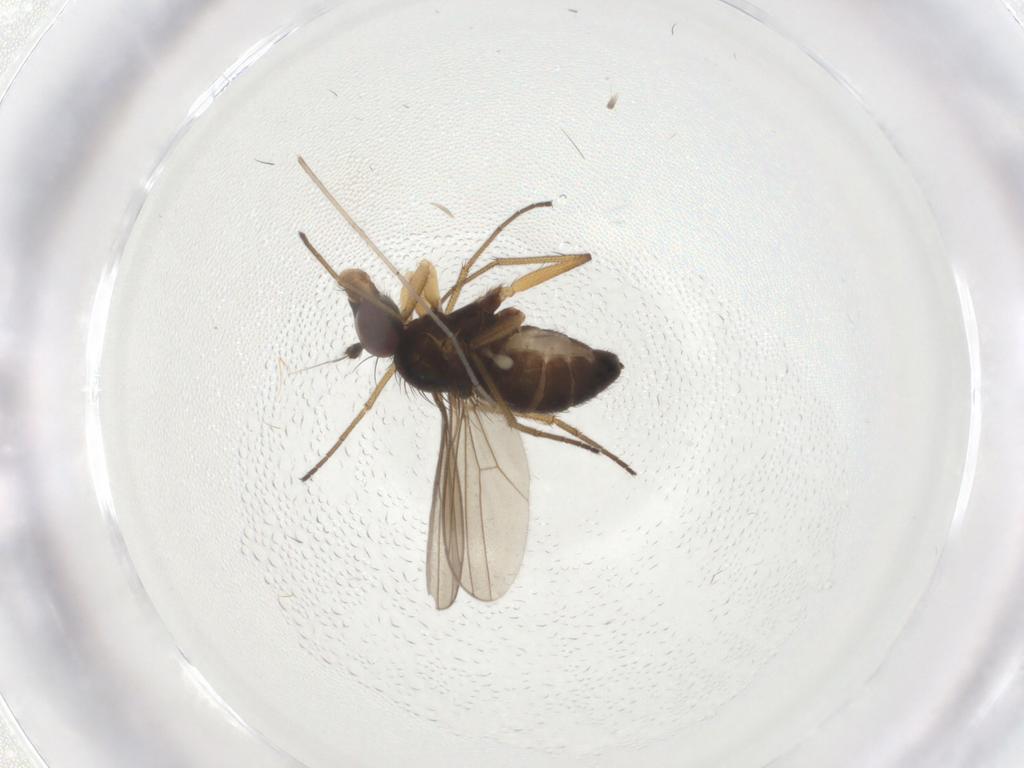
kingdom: Animalia
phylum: Arthropoda
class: Insecta
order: Diptera
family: Dolichopodidae
